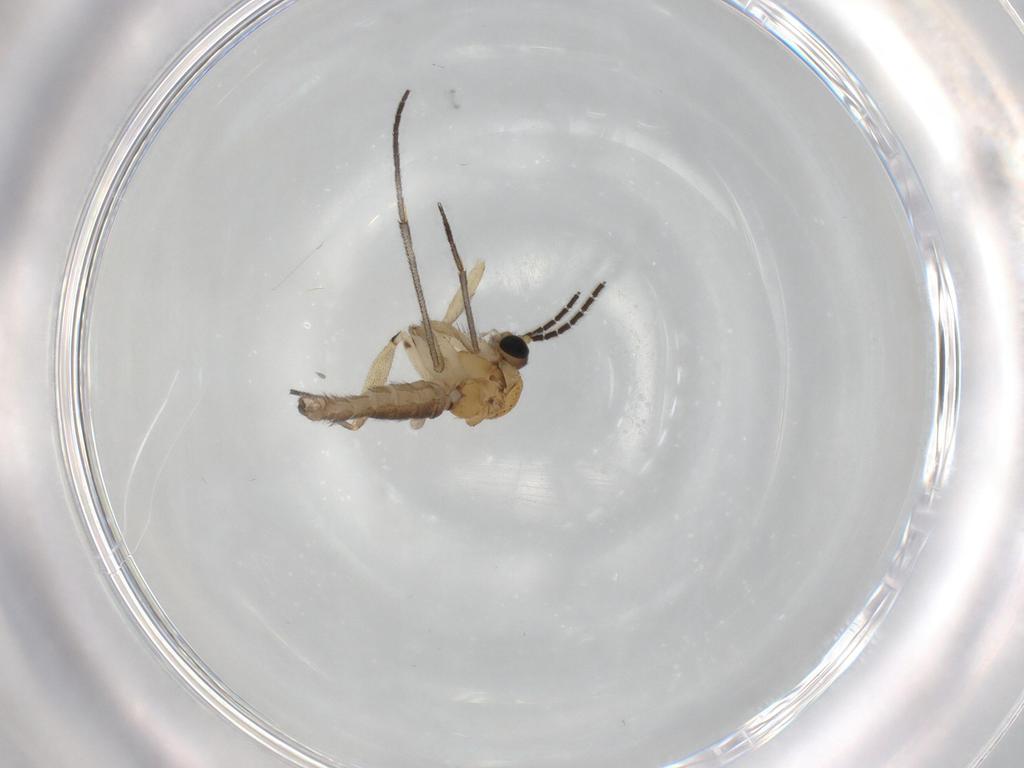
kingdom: Animalia
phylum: Arthropoda
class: Insecta
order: Diptera
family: Sciaridae
